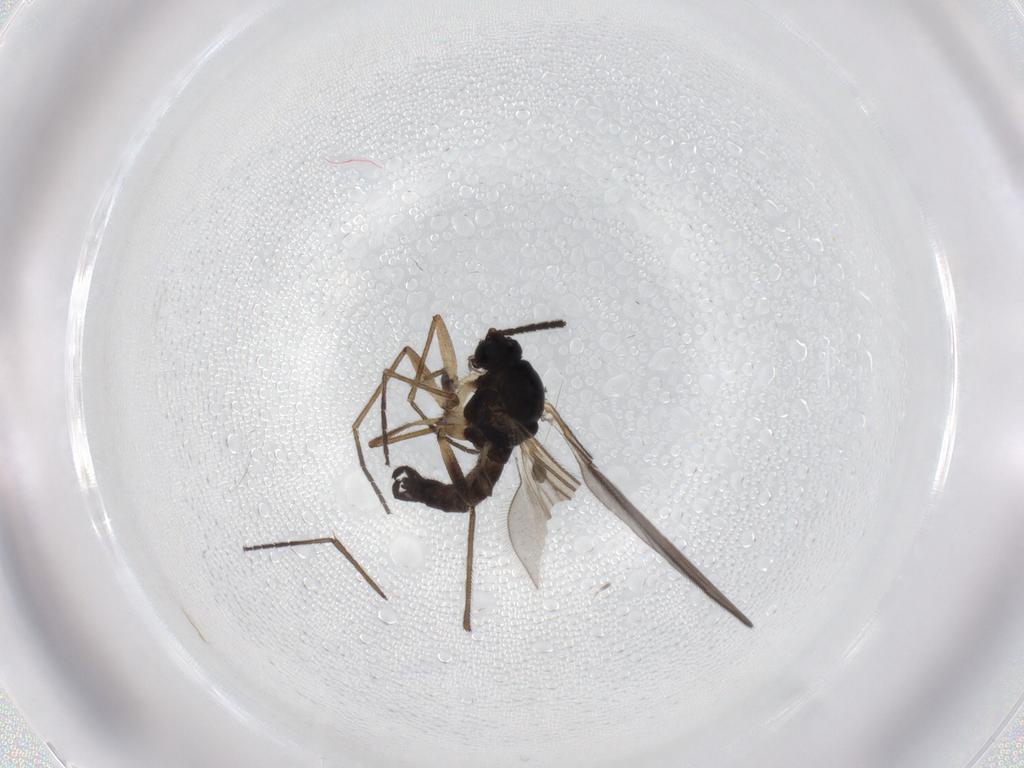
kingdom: Animalia
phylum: Arthropoda
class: Insecta
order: Diptera
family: Sciaridae
